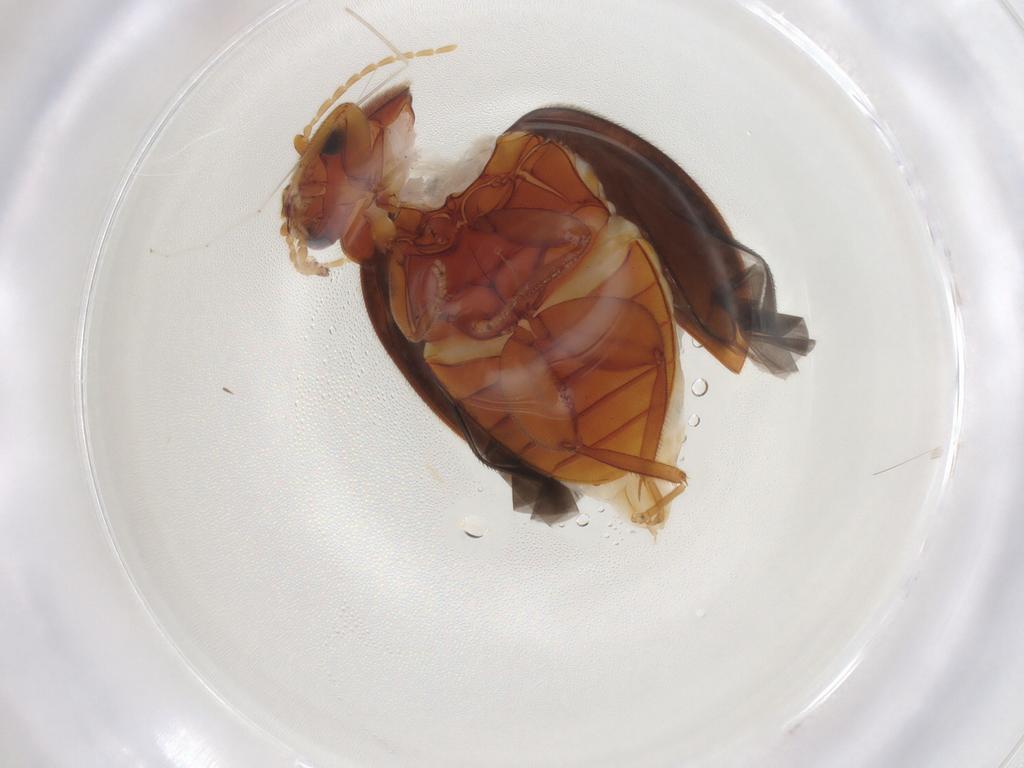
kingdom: Animalia
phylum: Arthropoda
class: Insecta
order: Coleoptera
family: Scirtidae
